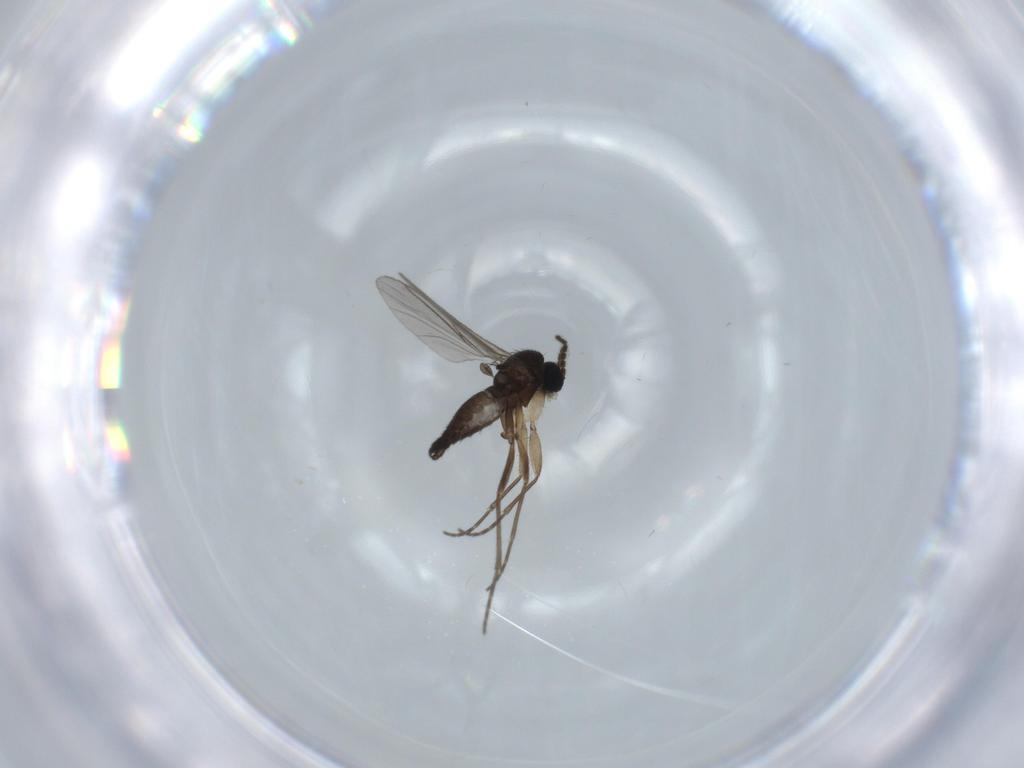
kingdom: Animalia
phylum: Arthropoda
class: Insecta
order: Diptera
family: Sciaridae
